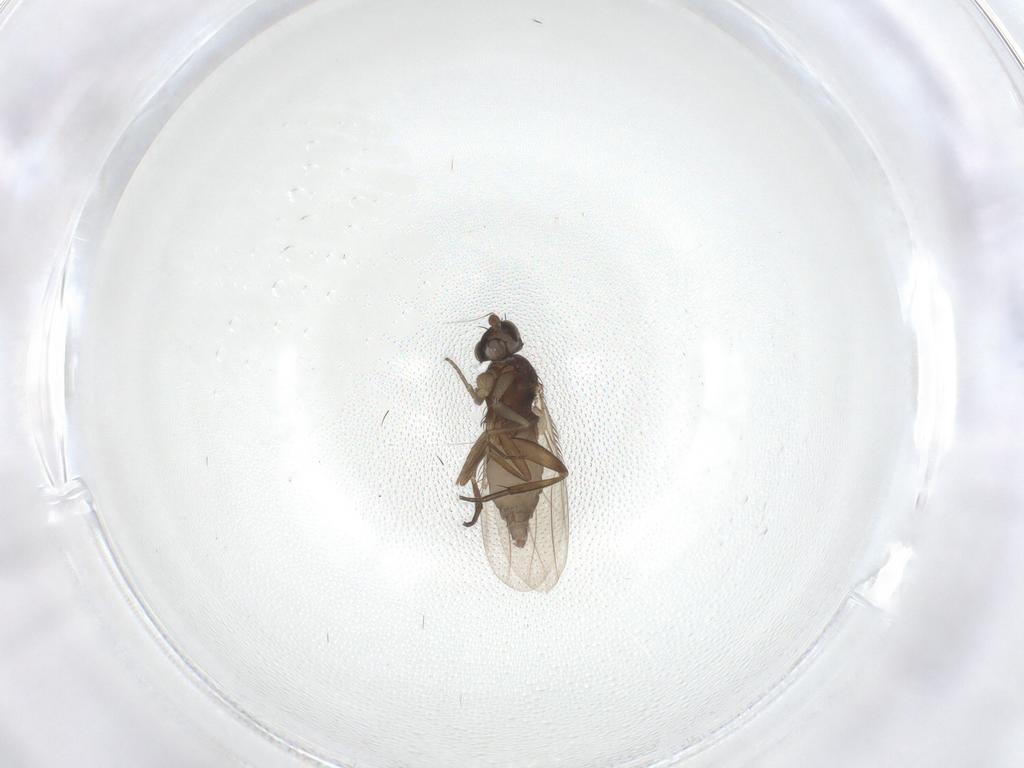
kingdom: Animalia
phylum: Arthropoda
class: Insecta
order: Diptera
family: Phoridae
